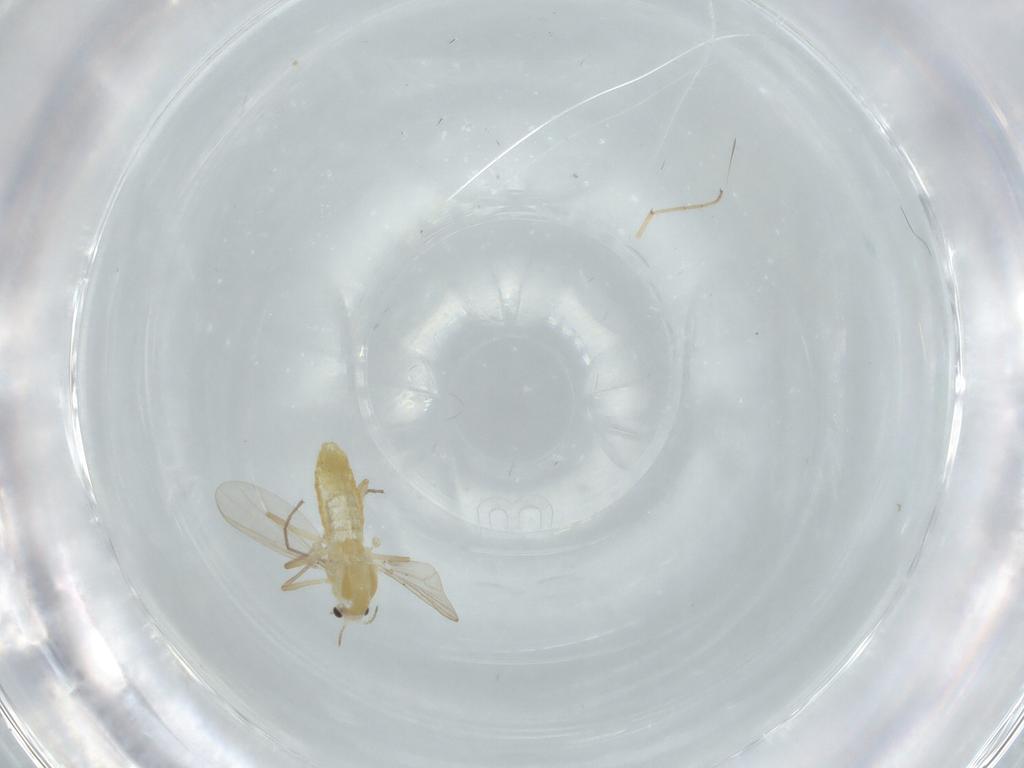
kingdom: Animalia
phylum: Arthropoda
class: Insecta
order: Diptera
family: Chironomidae
